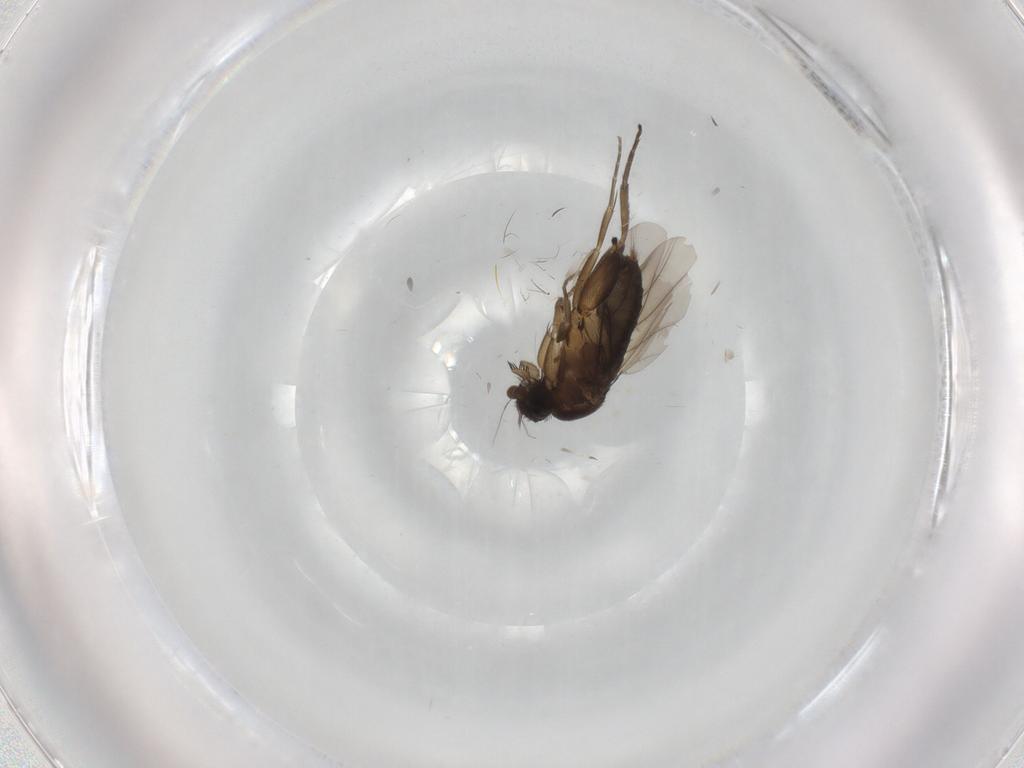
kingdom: Animalia
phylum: Arthropoda
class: Insecta
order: Diptera
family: Phoridae
